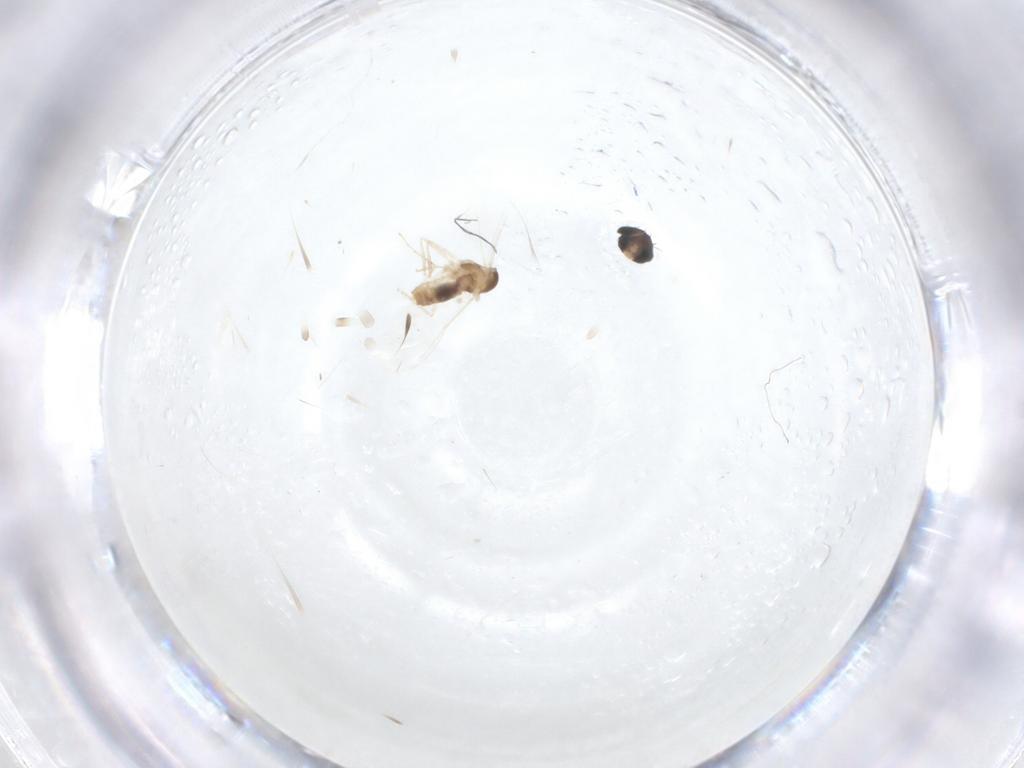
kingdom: Animalia
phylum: Arthropoda
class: Insecta
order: Diptera
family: Cecidomyiidae
